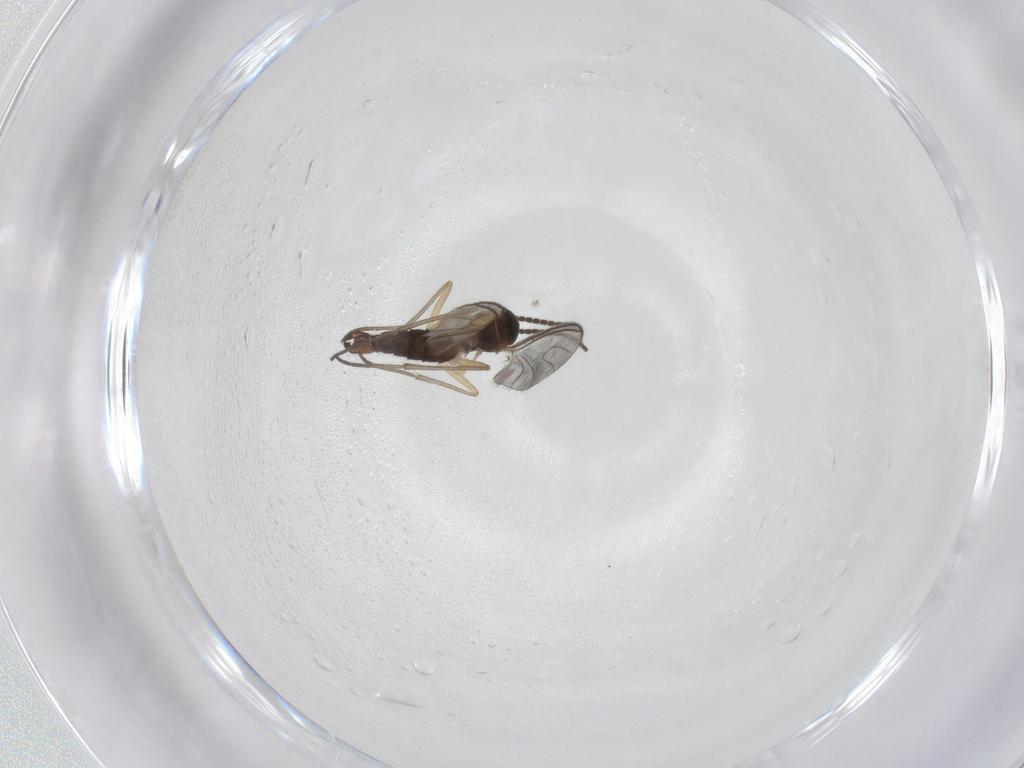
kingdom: Animalia
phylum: Arthropoda
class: Insecta
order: Diptera
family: Sciaridae
